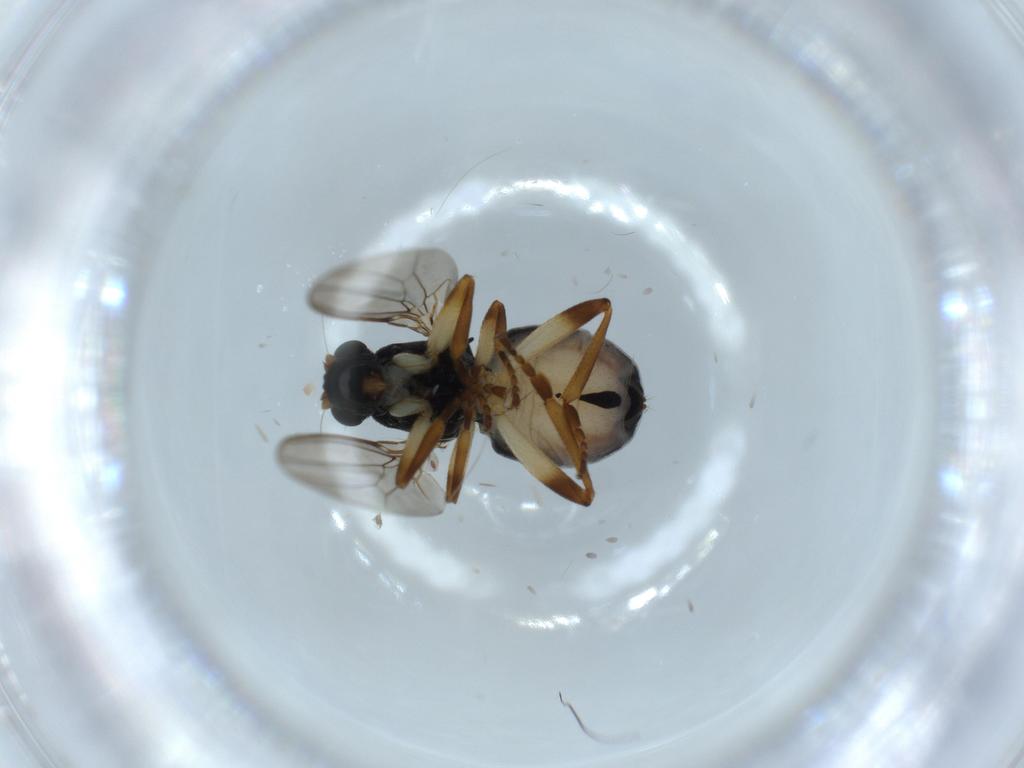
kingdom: Animalia
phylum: Arthropoda
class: Insecta
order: Diptera
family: Sphaeroceridae
